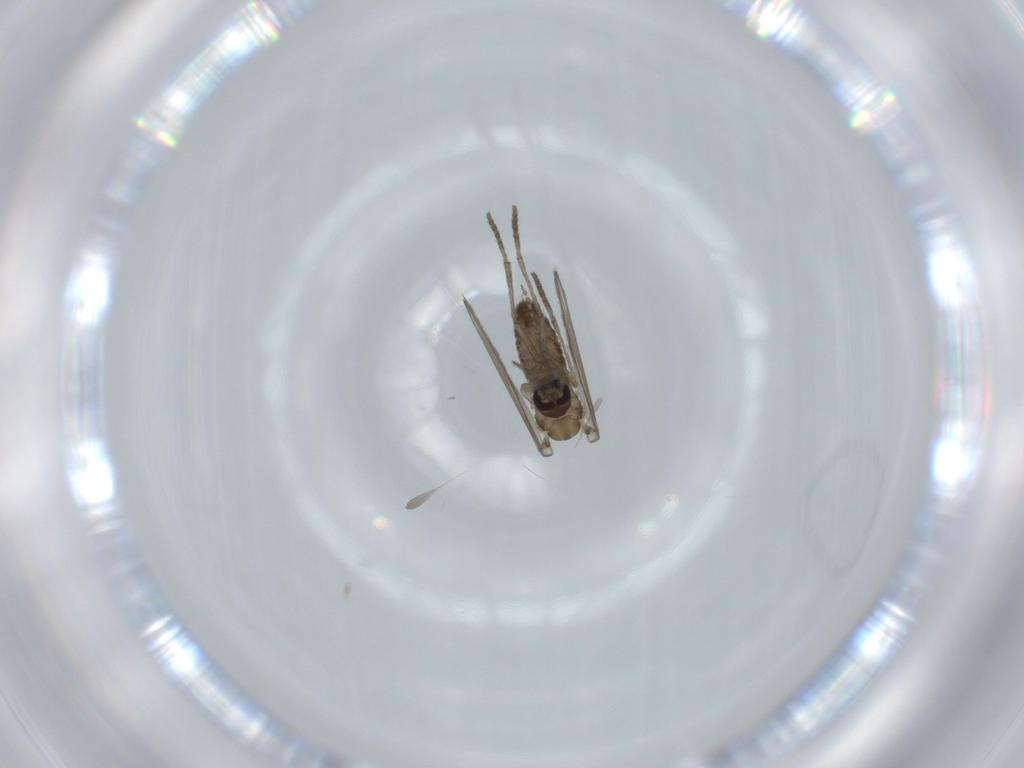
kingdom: Animalia
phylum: Arthropoda
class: Insecta
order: Diptera
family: Psychodidae
